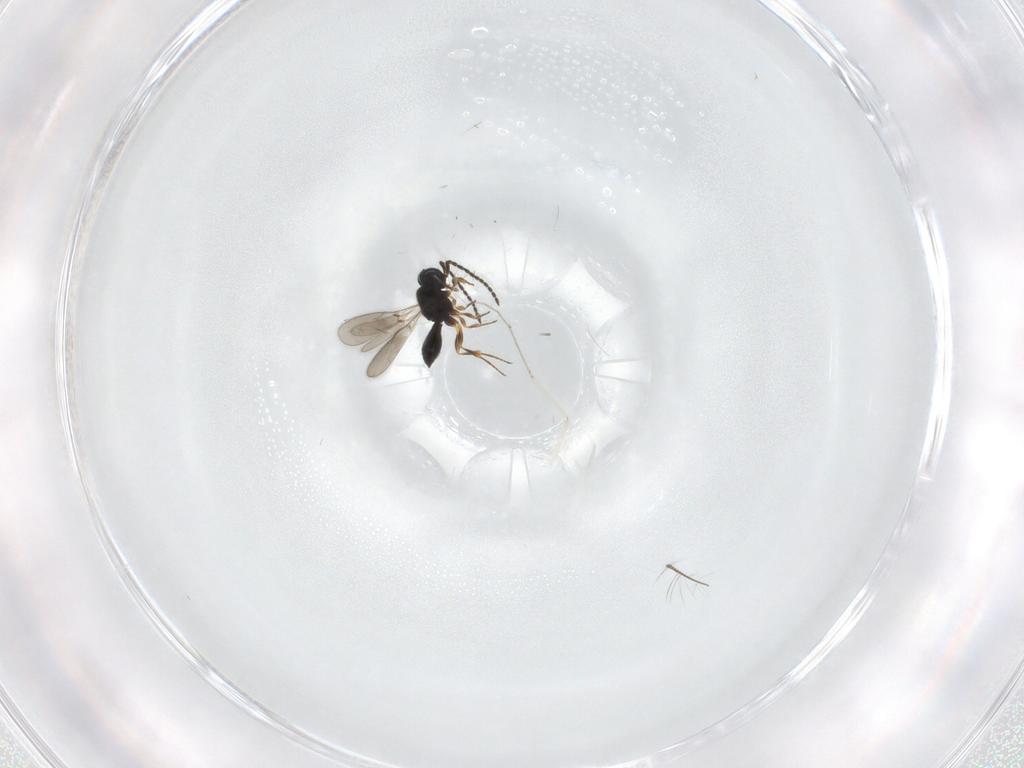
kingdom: Animalia
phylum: Arthropoda
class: Insecta
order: Hymenoptera
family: Scelionidae
